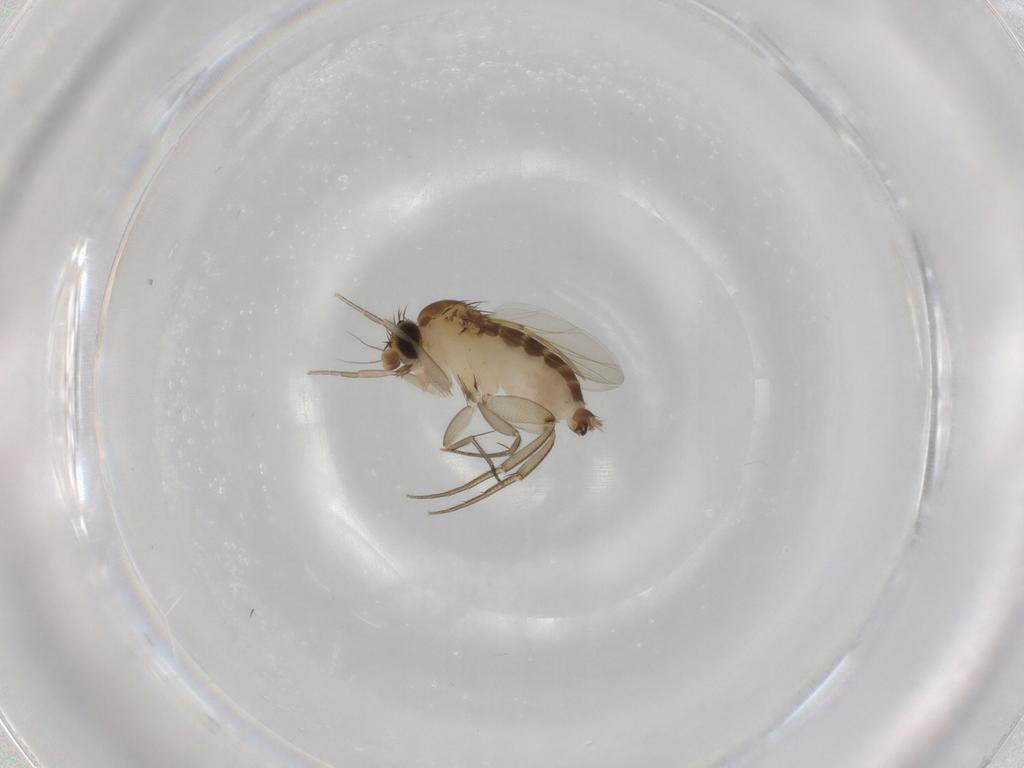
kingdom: Animalia
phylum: Arthropoda
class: Insecta
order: Diptera
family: Phoridae
